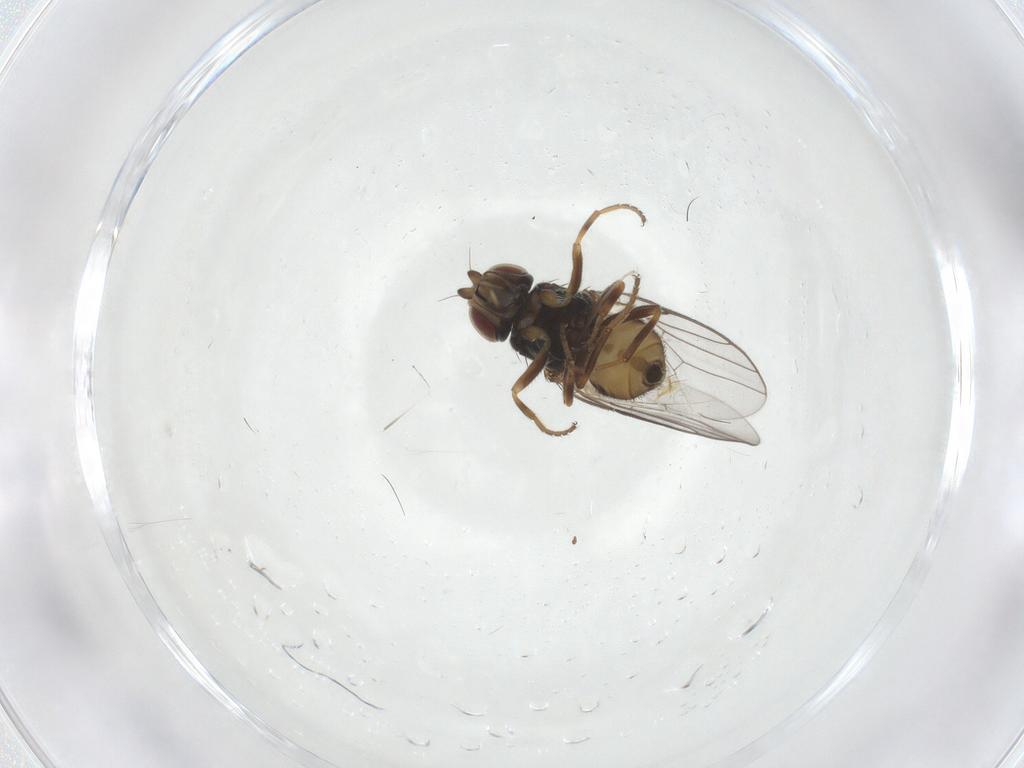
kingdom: Animalia
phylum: Arthropoda
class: Insecta
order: Diptera
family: Chloropidae
